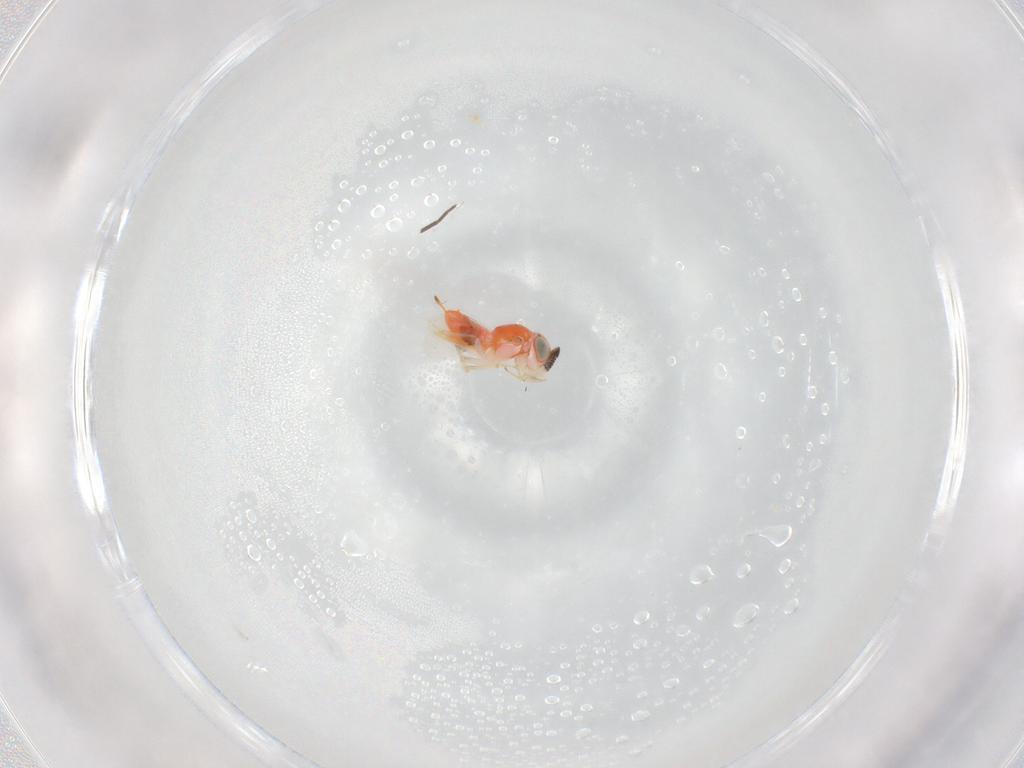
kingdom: Animalia
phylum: Arthropoda
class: Insecta
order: Hymenoptera
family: Encyrtidae
